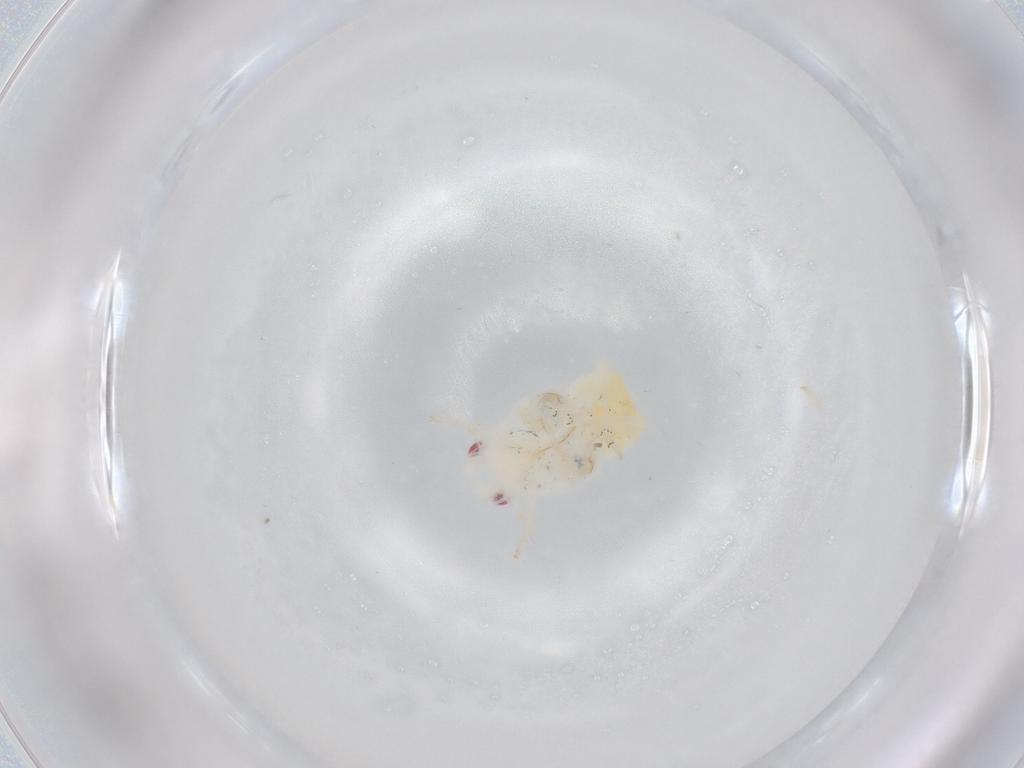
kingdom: Animalia
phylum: Arthropoda
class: Insecta
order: Hemiptera
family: Flatidae
